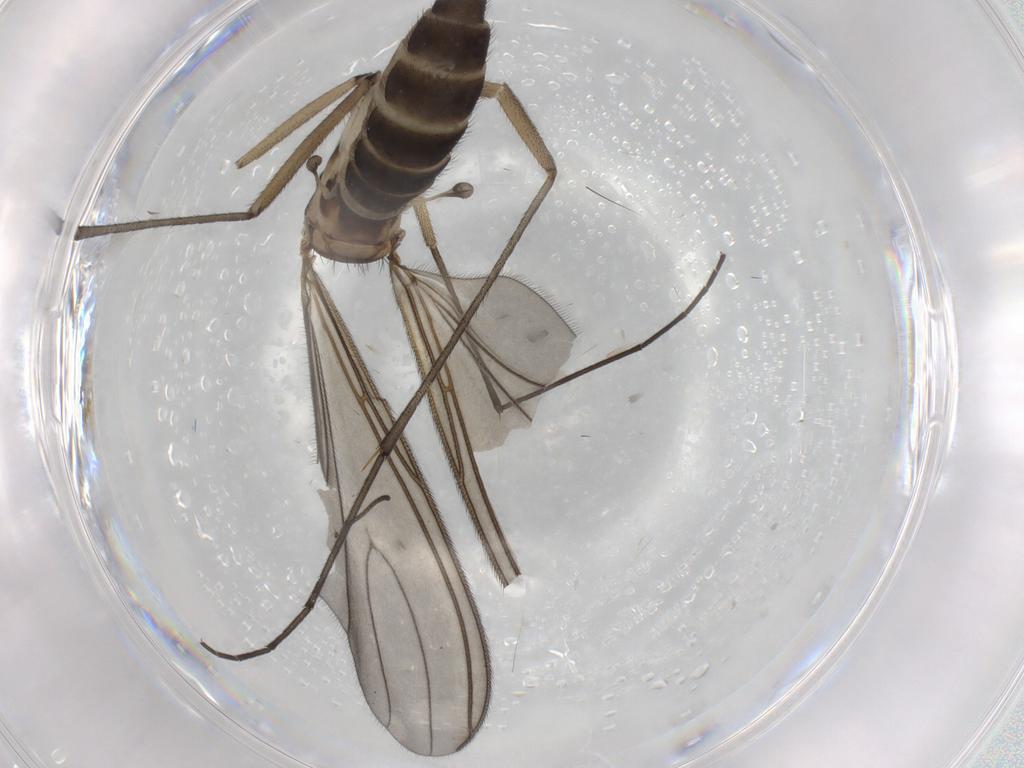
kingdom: Animalia
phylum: Arthropoda
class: Insecta
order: Diptera
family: Sciaridae
